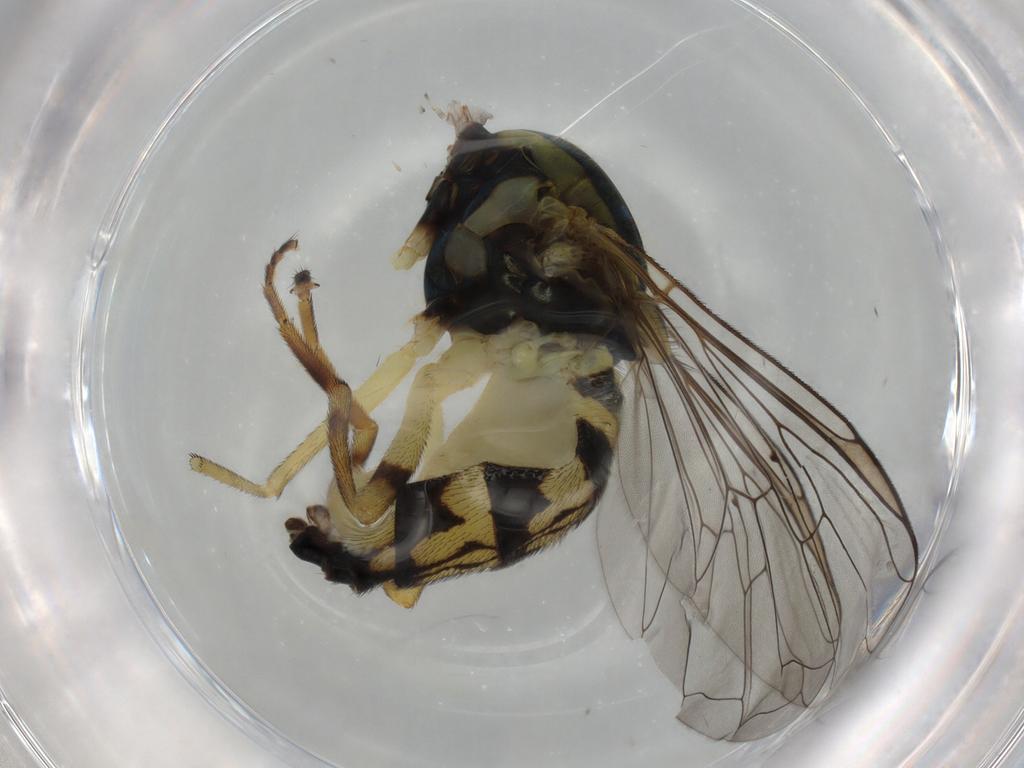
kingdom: Animalia
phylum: Arthropoda
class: Insecta
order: Diptera
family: Syrphidae
